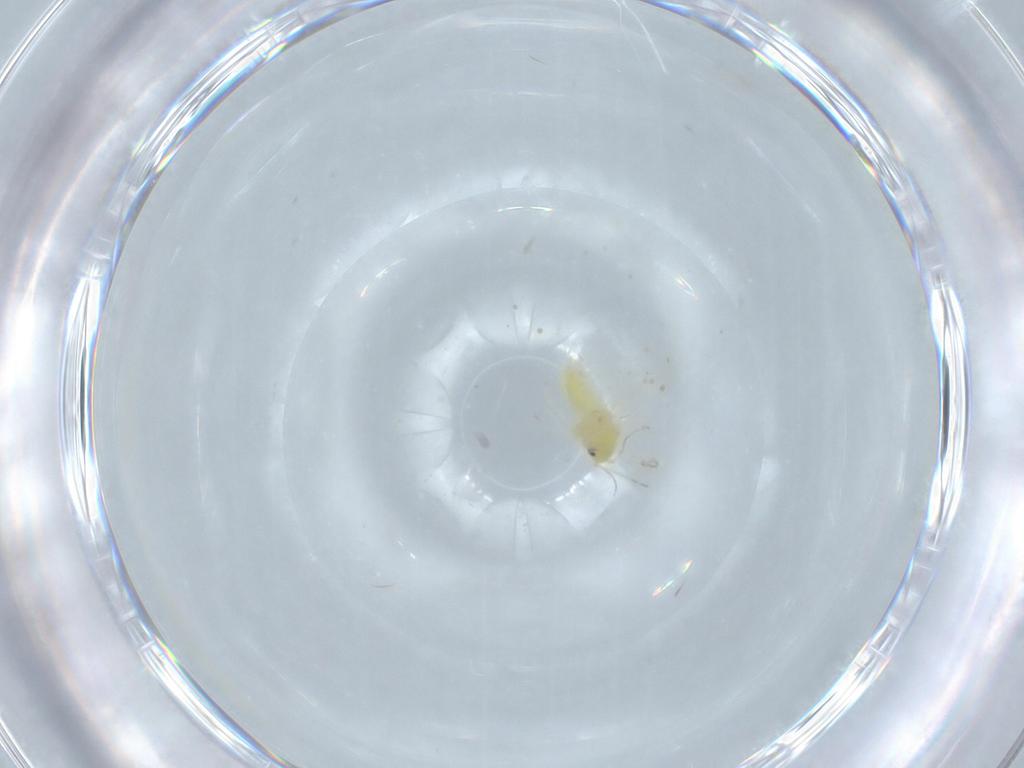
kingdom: Animalia
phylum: Arthropoda
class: Insecta
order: Hemiptera
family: Aleyrodidae
